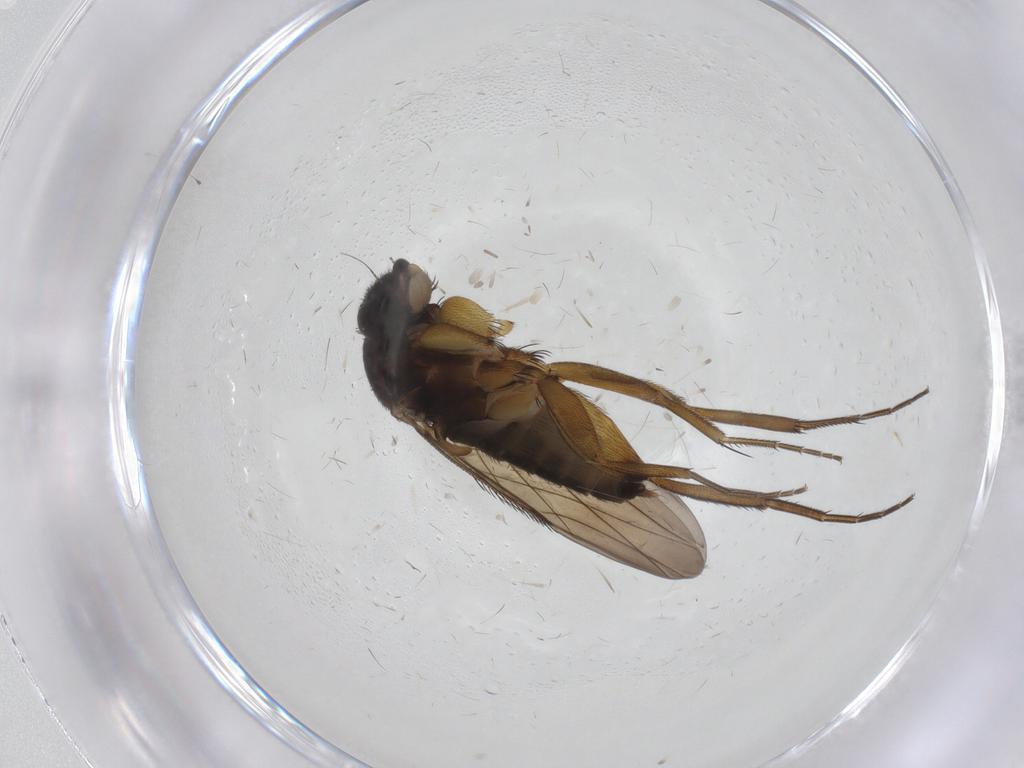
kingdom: Animalia
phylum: Arthropoda
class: Insecta
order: Diptera
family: Phoridae
